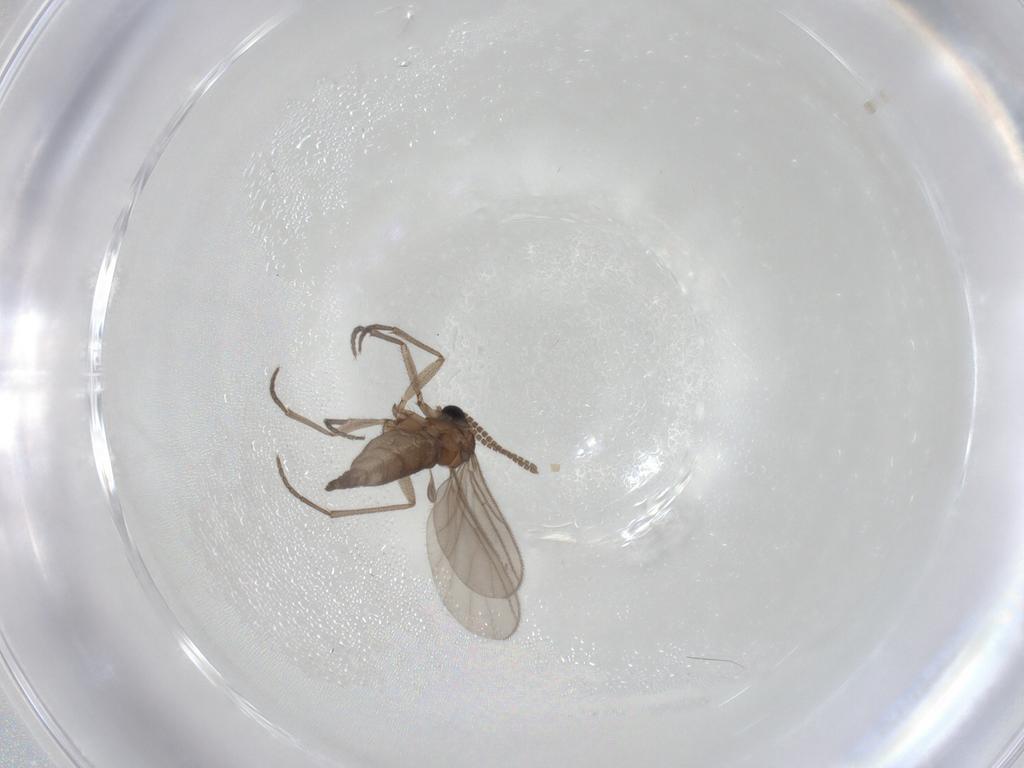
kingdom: Animalia
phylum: Arthropoda
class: Insecta
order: Diptera
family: Sciaridae
